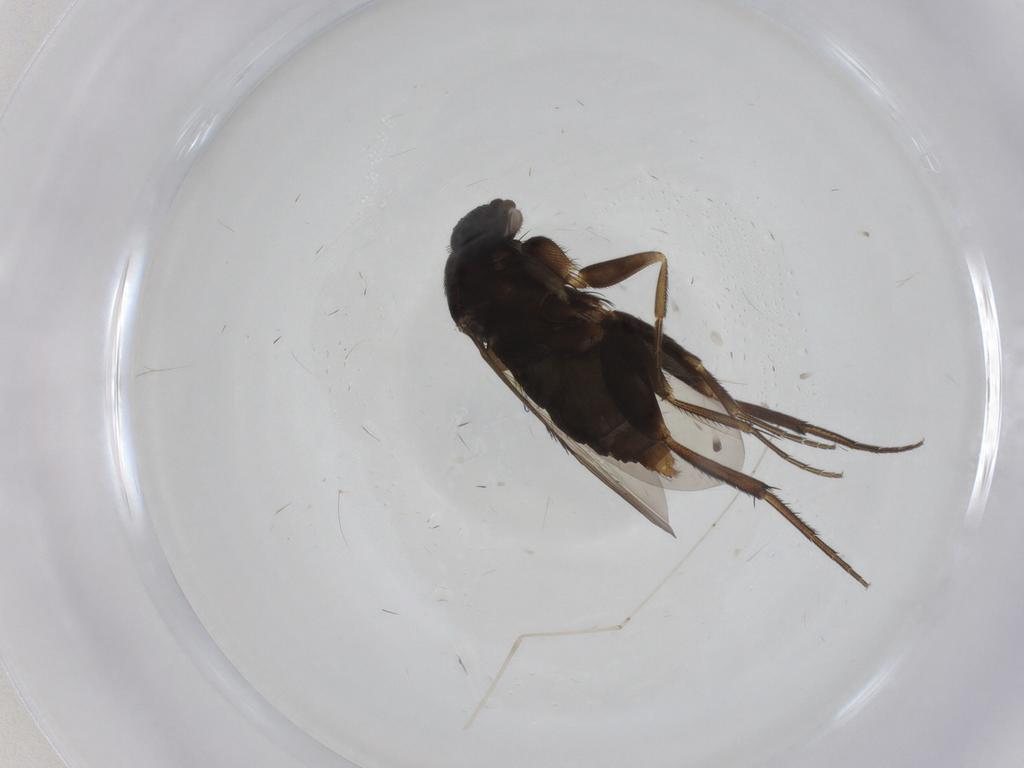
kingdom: Animalia
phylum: Arthropoda
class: Insecta
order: Diptera
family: Phoridae
